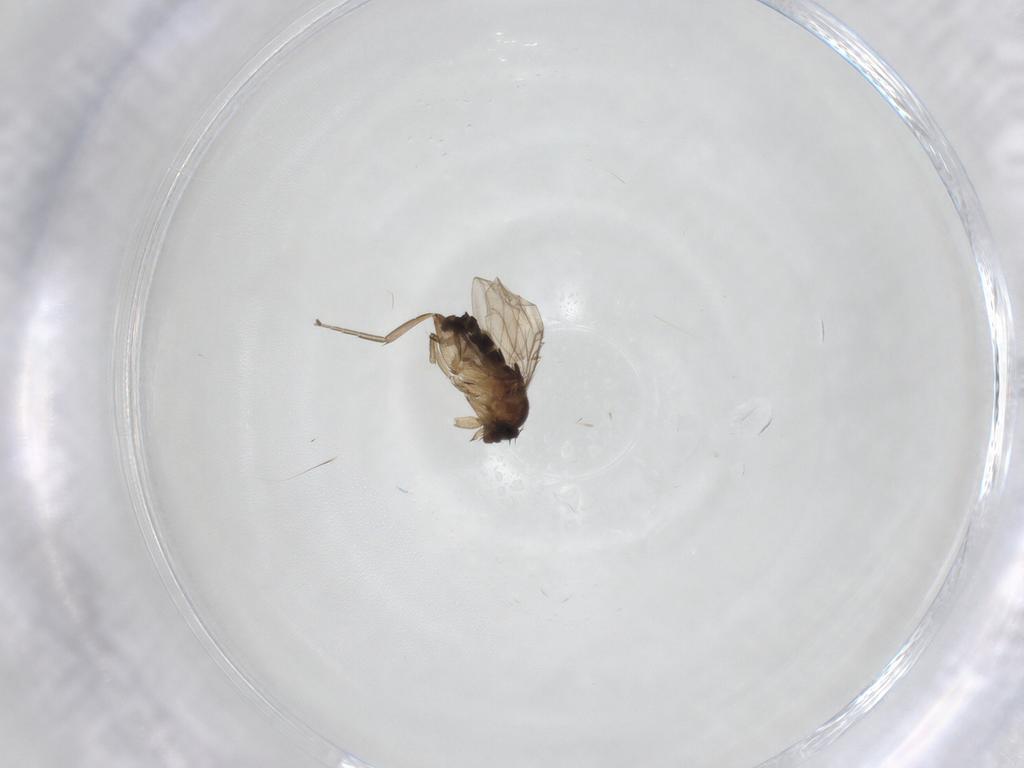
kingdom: Animalia
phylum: Arthropoda
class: Insecta
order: Diptera
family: Phoridae
